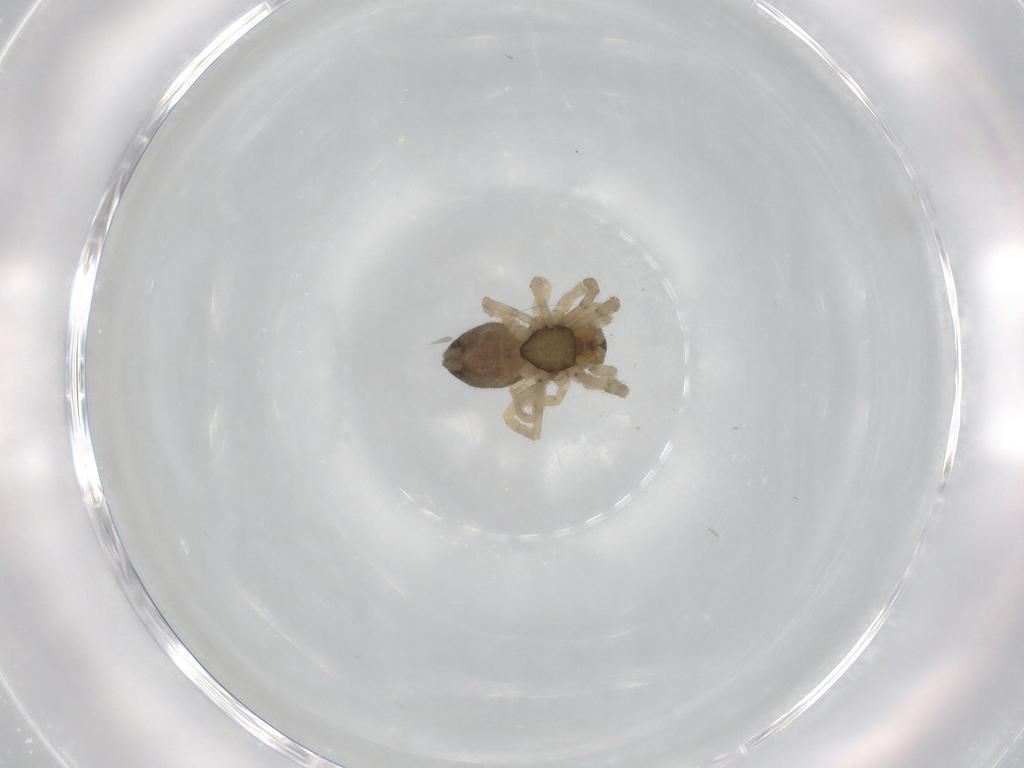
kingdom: Animalia
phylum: Arthropoda
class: Arachnida
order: Araneae
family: Trachelidae
